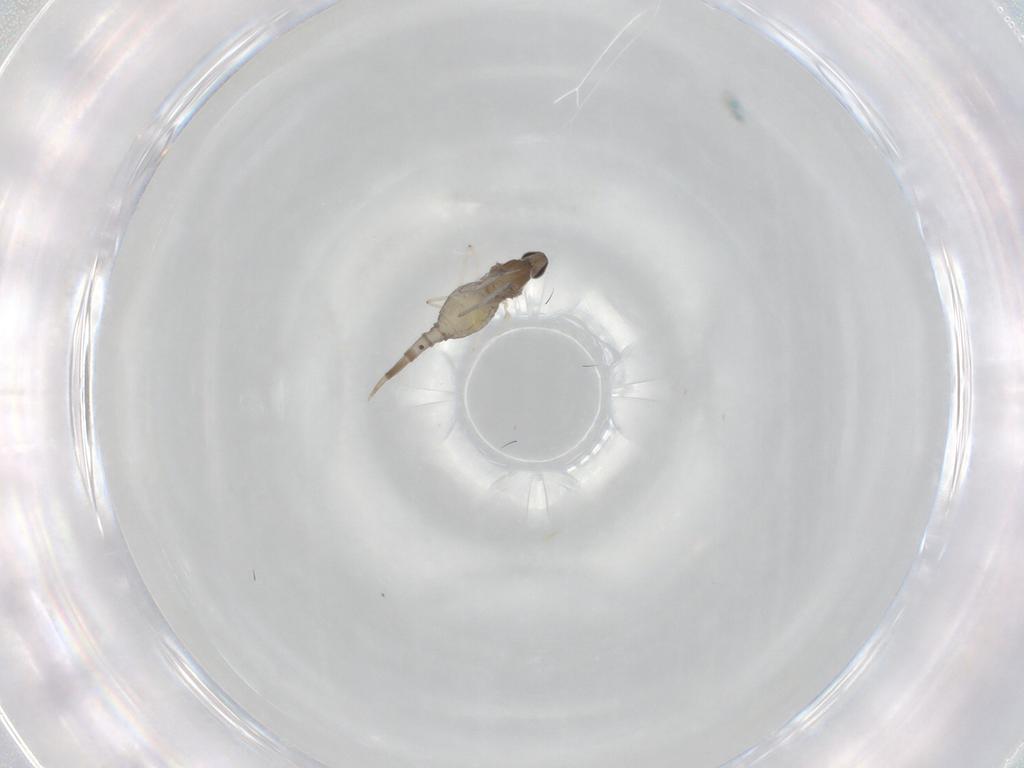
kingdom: Animalia
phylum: Arthropoda
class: Insecta
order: Diptera
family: Cecidomyiidae
